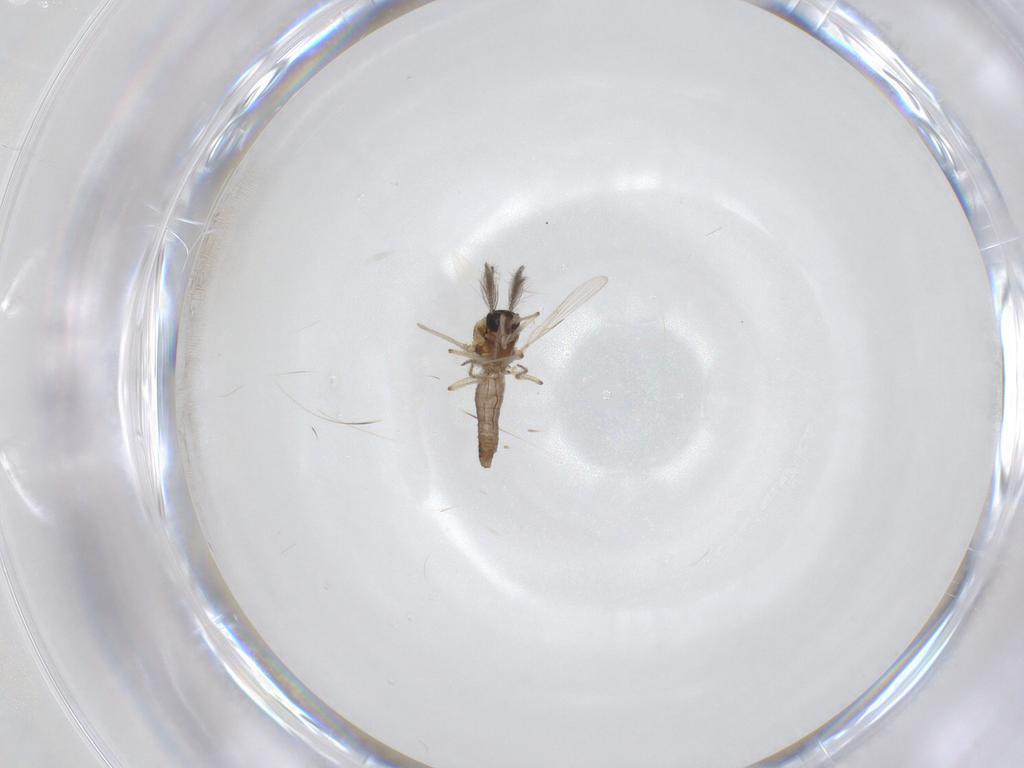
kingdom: Animalia
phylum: Arthropoda
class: Insecta
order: Diptera
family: Ceratopogonidae
